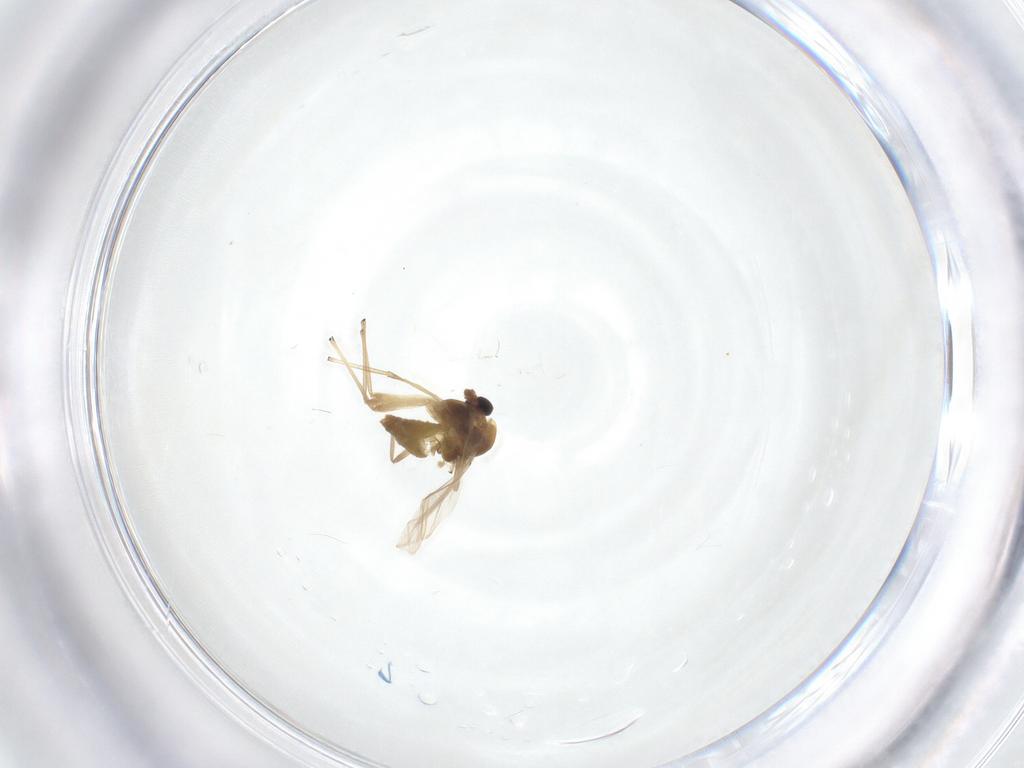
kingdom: Animalia
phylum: Arthropoda
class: Insecta
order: Diptera
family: Chironomidae
